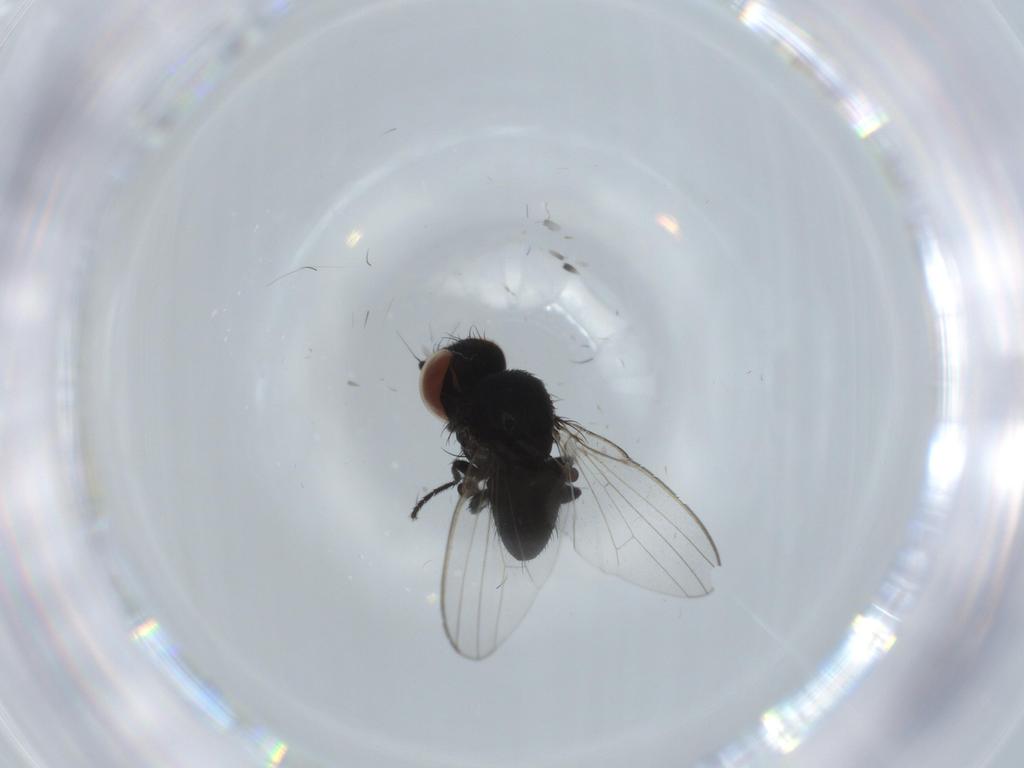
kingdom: Animalia
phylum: Arthropoda
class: Insecta
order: Diptera
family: Milichiidae
